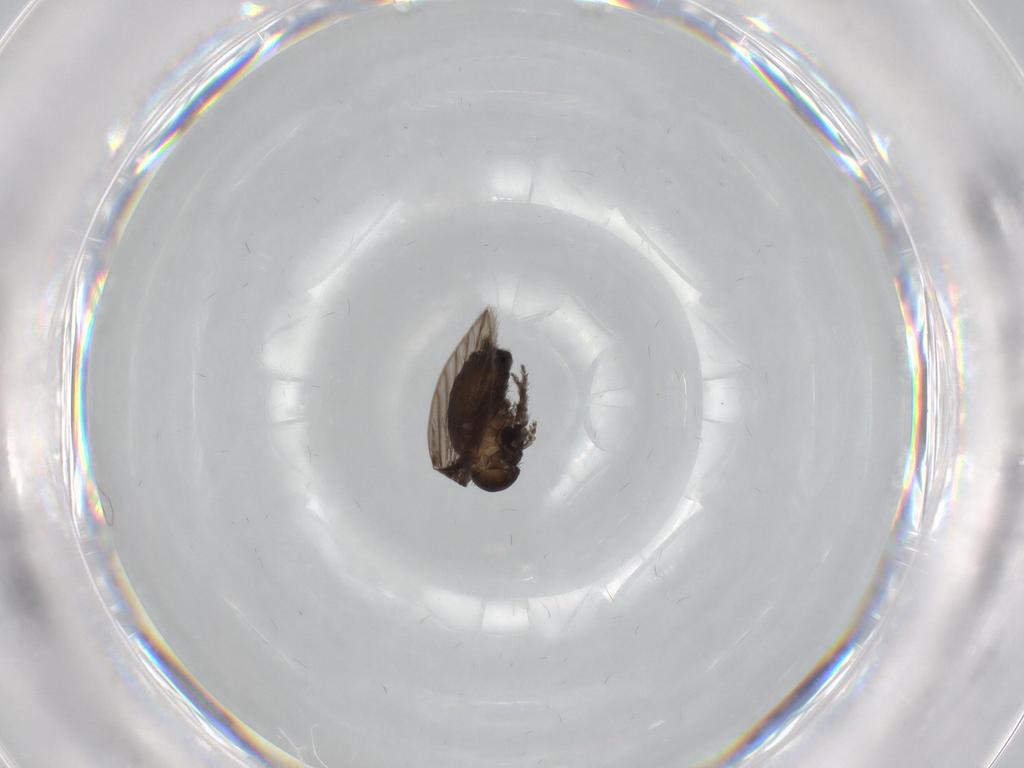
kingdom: Animalia
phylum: Arthropoda
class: Insecta
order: Diptera
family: Psychodidae
